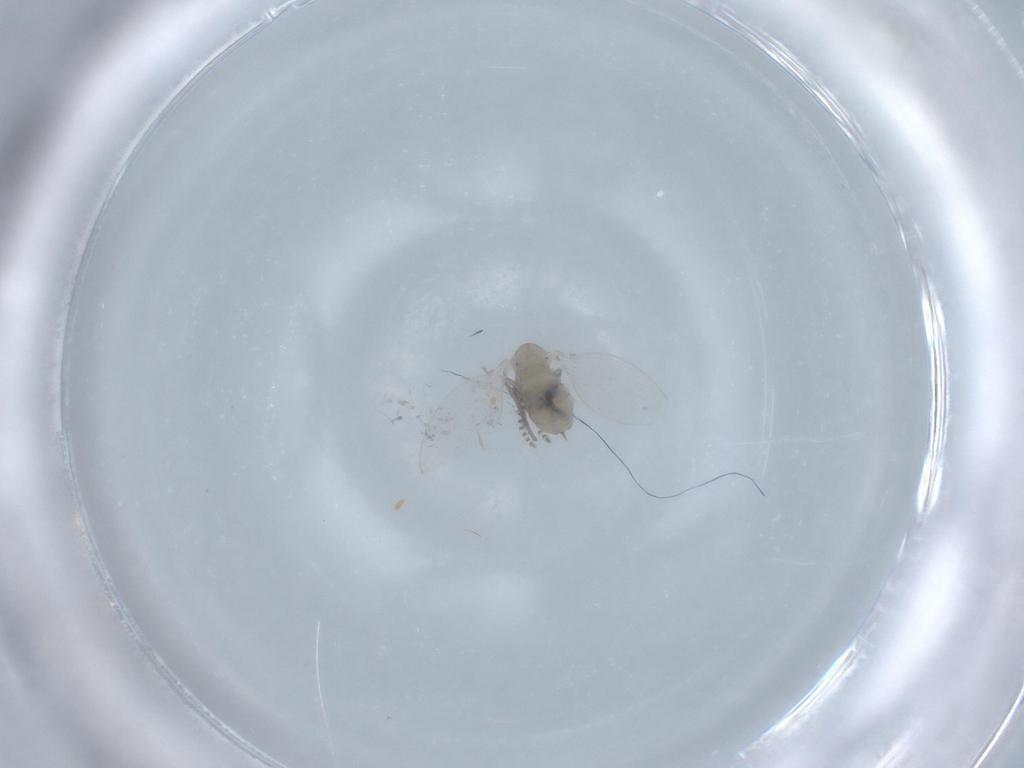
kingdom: Animalia
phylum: Arthropoda
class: Insecta
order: Diptera
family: Psychodidae
